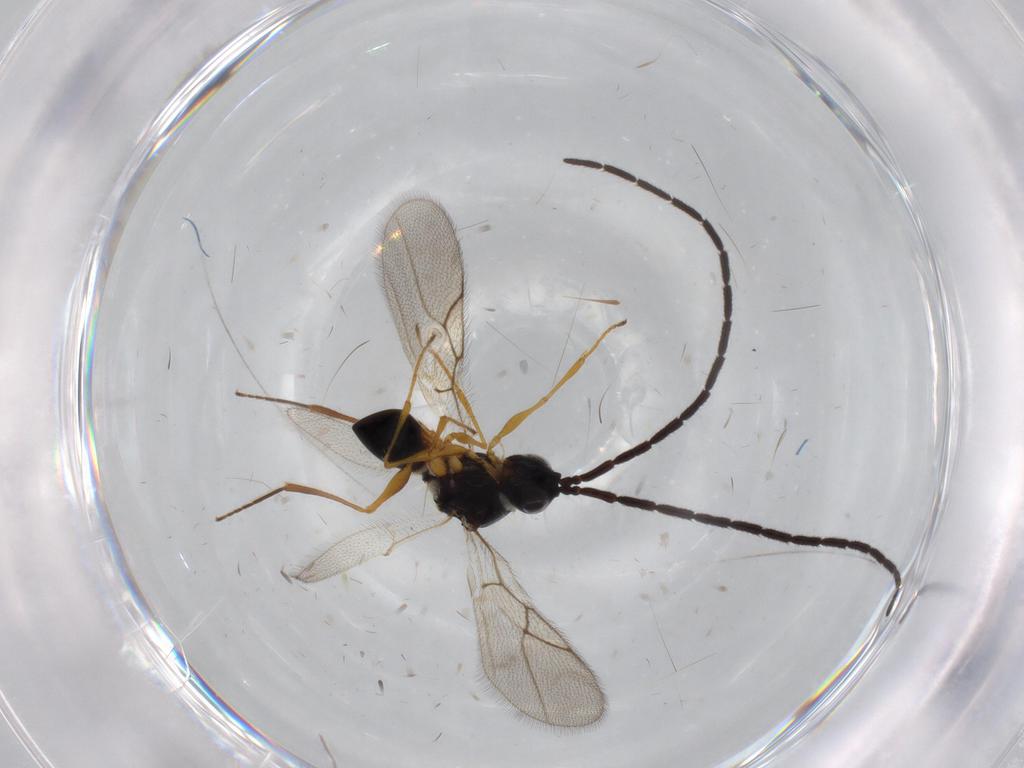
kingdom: Animalia
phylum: Arthropoda
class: Insecta
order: Hymenoptera
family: Figitidae
